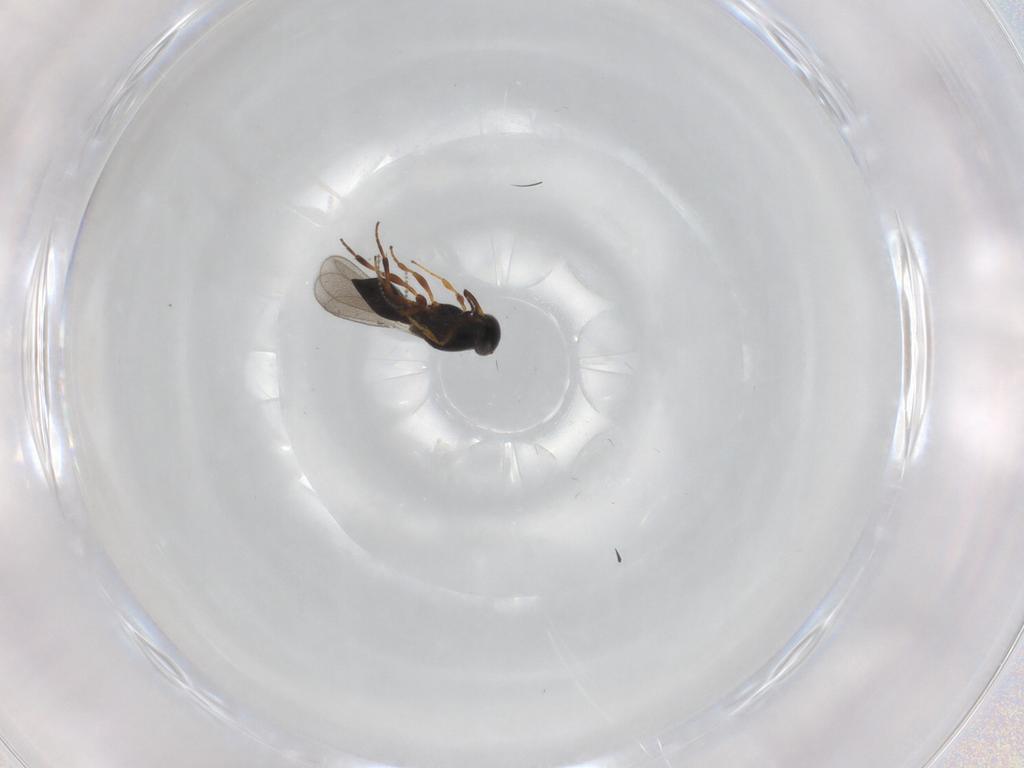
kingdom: Animalia
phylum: Arthropoda
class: Insecta
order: Hymenoptera
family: Platygastridae
